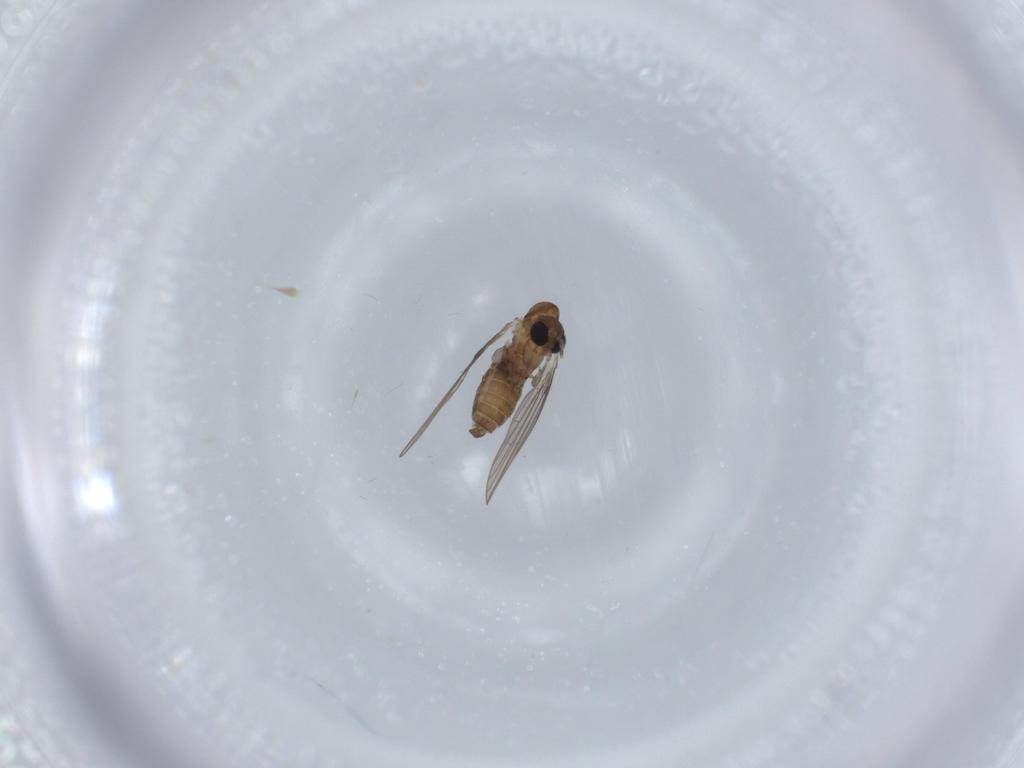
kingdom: Animalia
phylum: Arthropoda
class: Insecta
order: Diptera
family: Psychodidae
